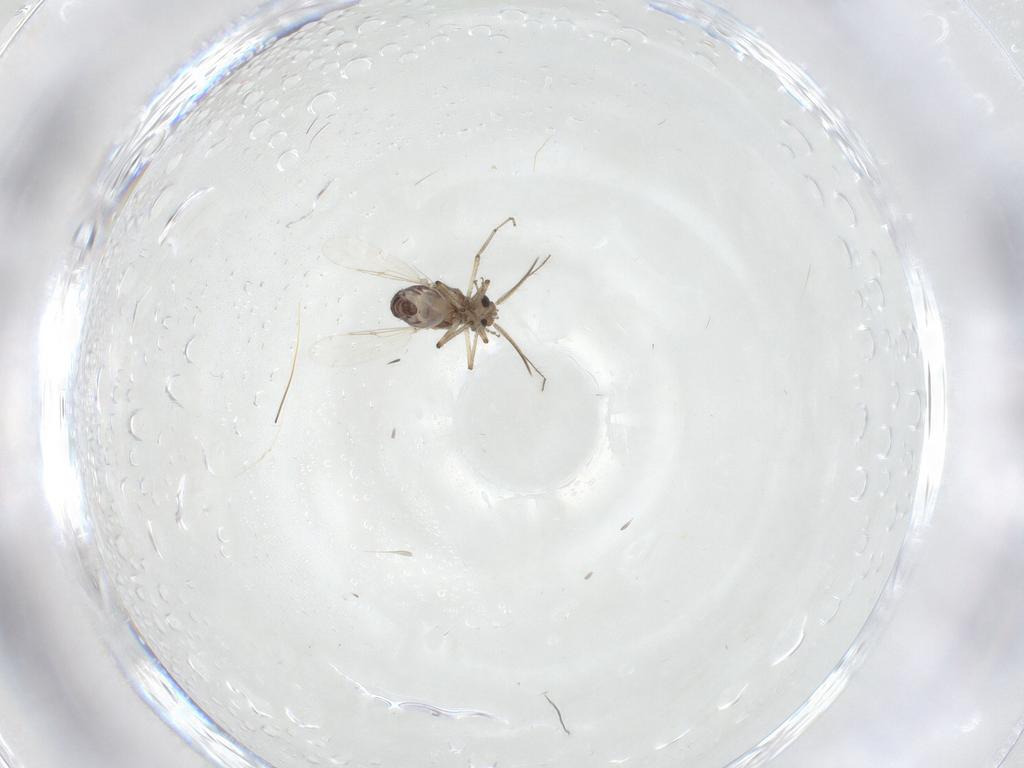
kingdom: Animalia
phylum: Arthropoda
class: Insecta
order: Diptera
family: Ceratopogonidae
